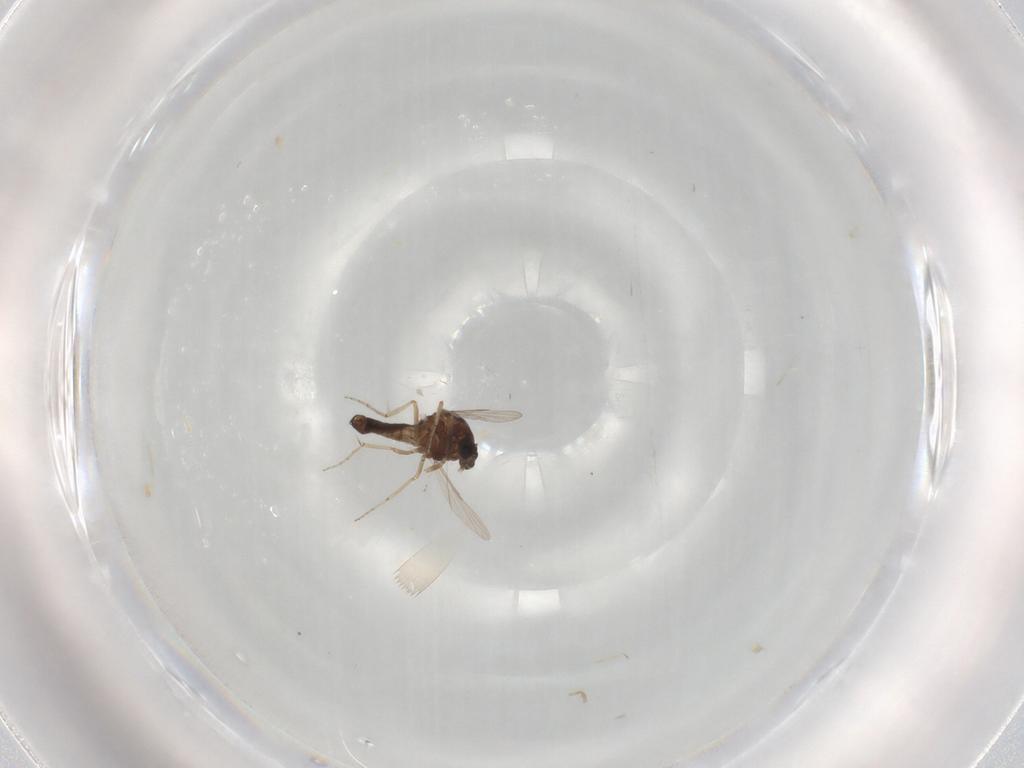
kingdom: Animalia
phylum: Arthropoda
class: Insecta
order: Diptera
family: Ceratopogonidae
